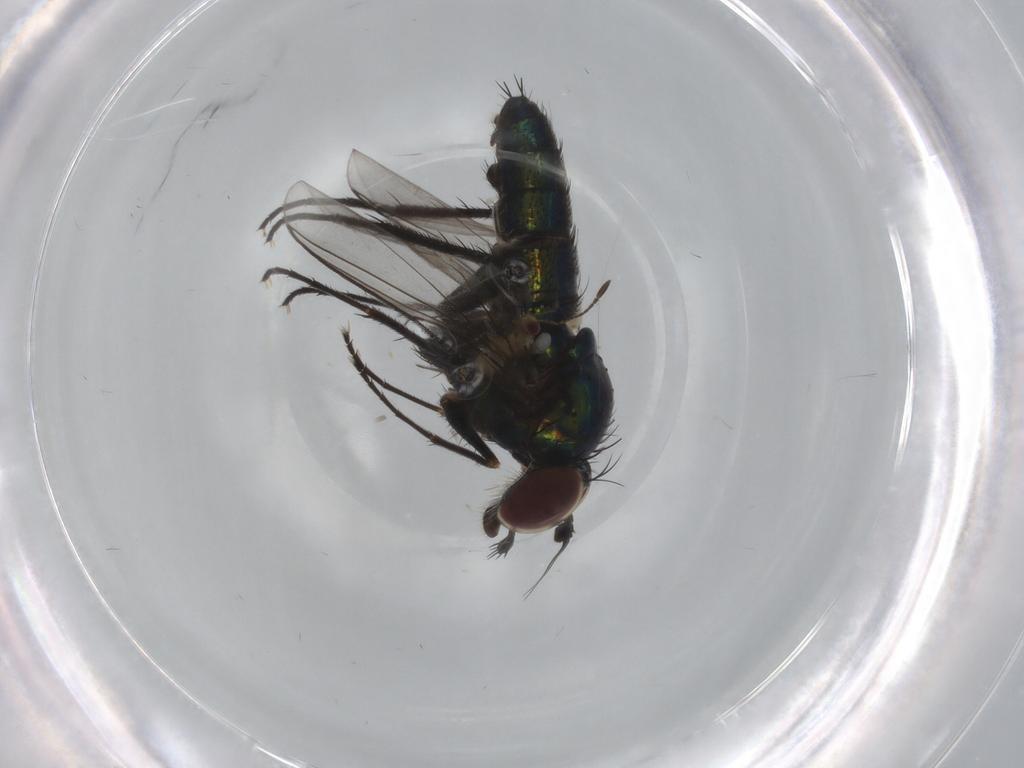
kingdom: Animalia
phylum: Arthropoda
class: Insecta
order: Diptera
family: Dolichopodidae
